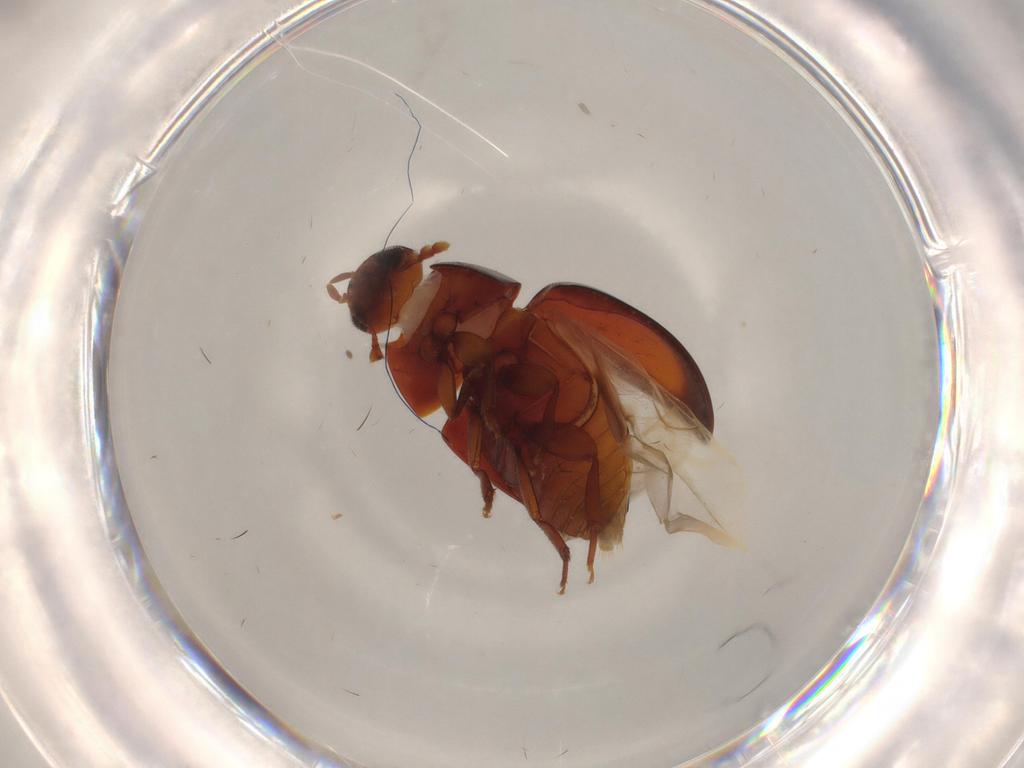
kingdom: Animalia
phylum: Arthropoda
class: Insecta
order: Coleoptera
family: Phalacridae
